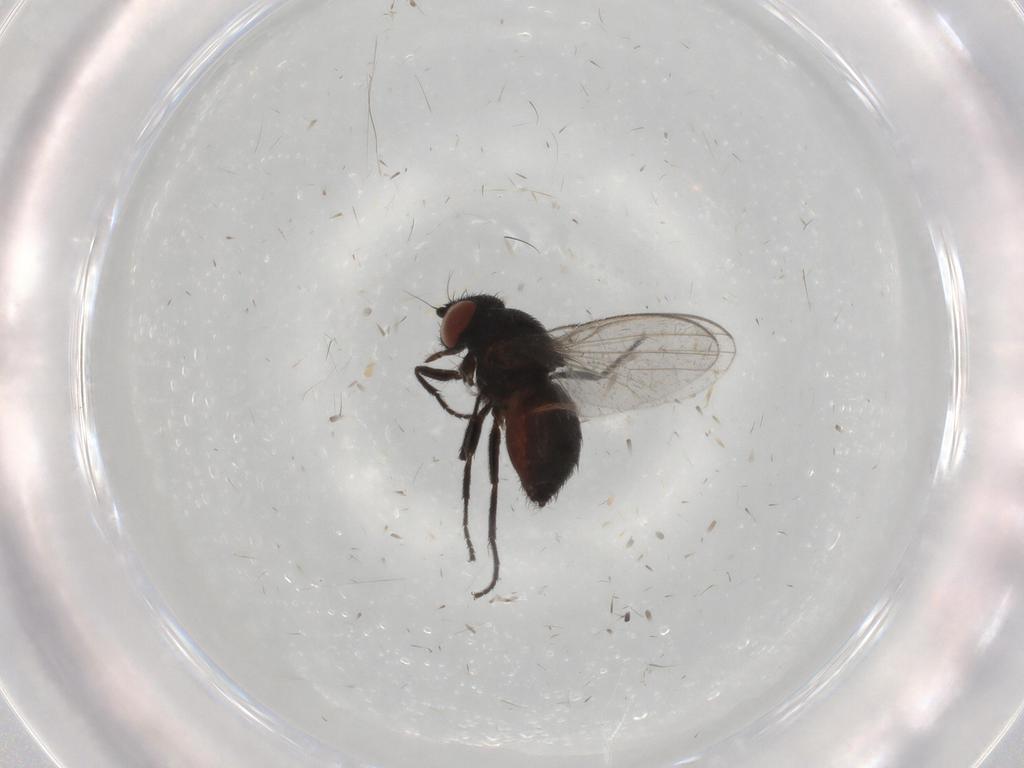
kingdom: Animalia
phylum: Arthropoda
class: Insecta
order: Diptera
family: Milichiidae
